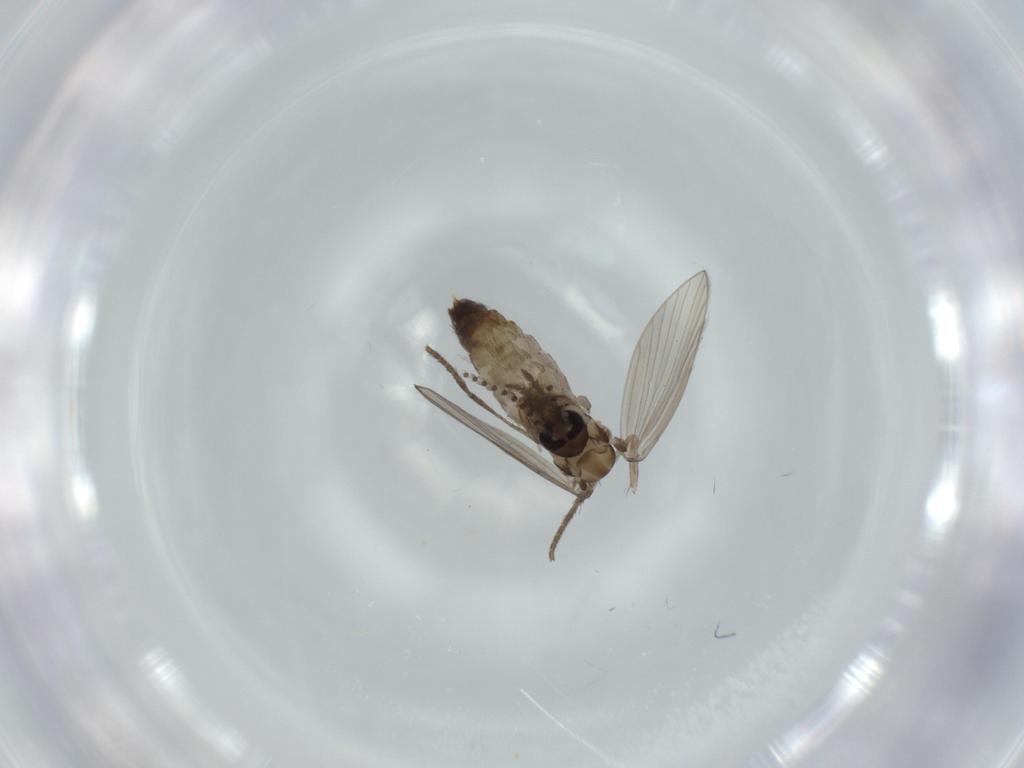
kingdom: Animalia
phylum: Arthropoda
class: Insecta
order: Diptera
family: Psychodidae
